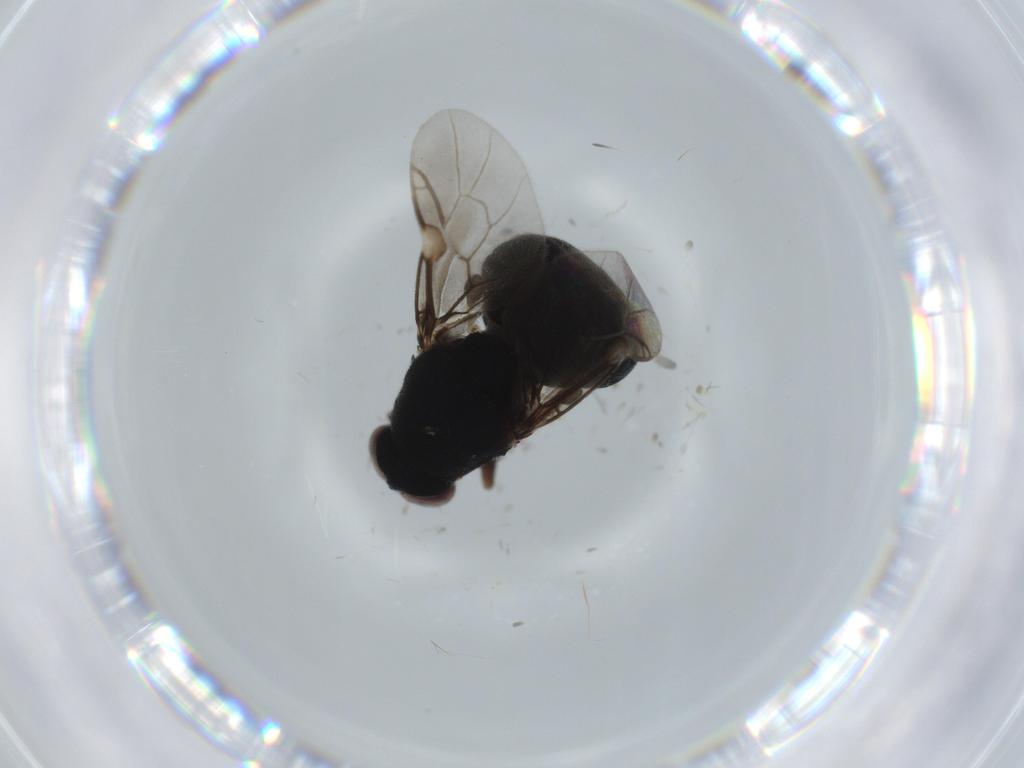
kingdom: Animalia
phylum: Arthropoda
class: Insecta
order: Diptera
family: Stratiomyidae
